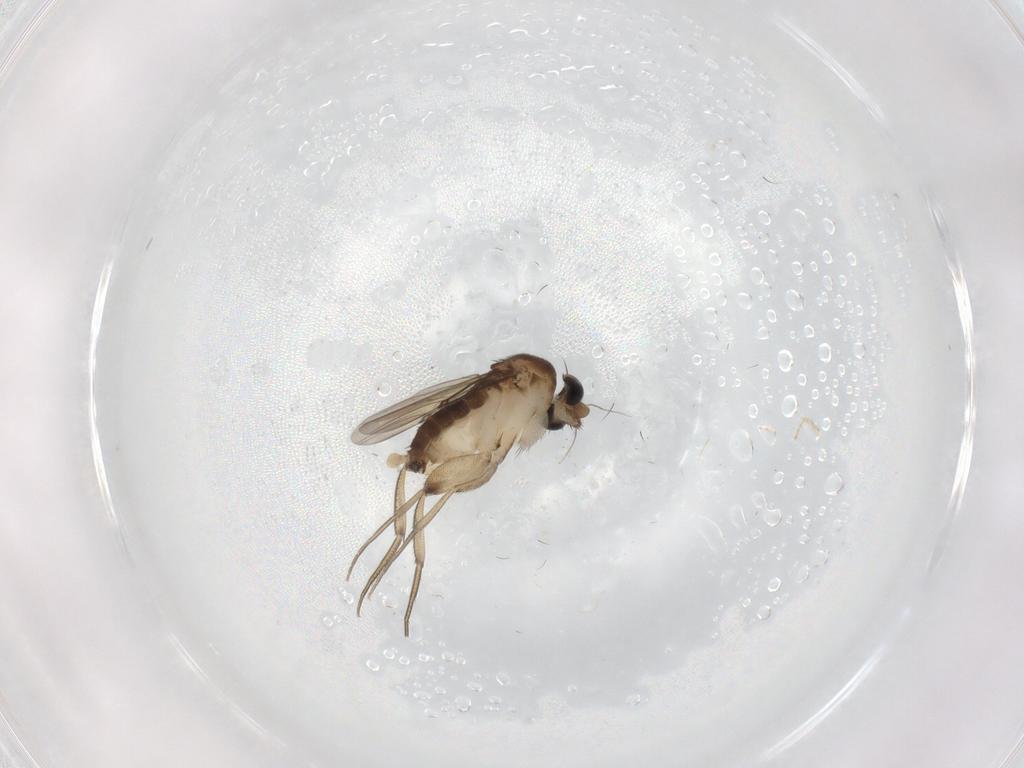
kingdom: Animalia
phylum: Arthropoda
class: Insecta
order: Diptera
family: Phoridae
